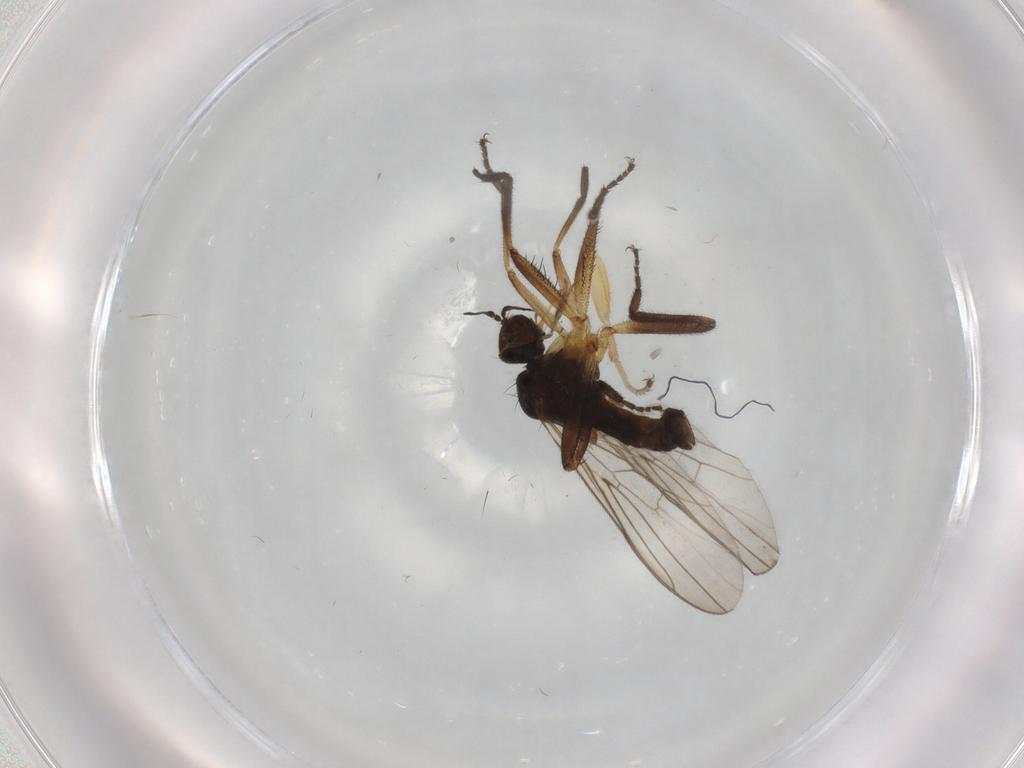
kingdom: Animalia
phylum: Arthropoda
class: Insecta
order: Diptera
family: Empididae
